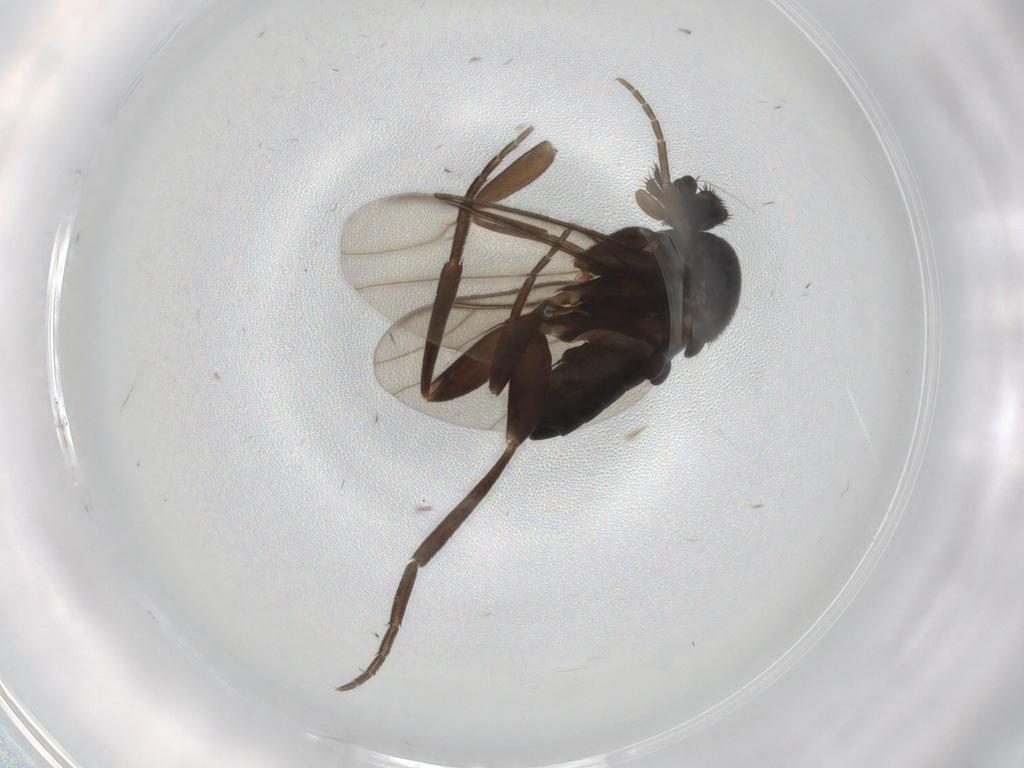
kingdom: Animalia
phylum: Arthropoda
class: Insecta
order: Diptera
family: Phoridae
